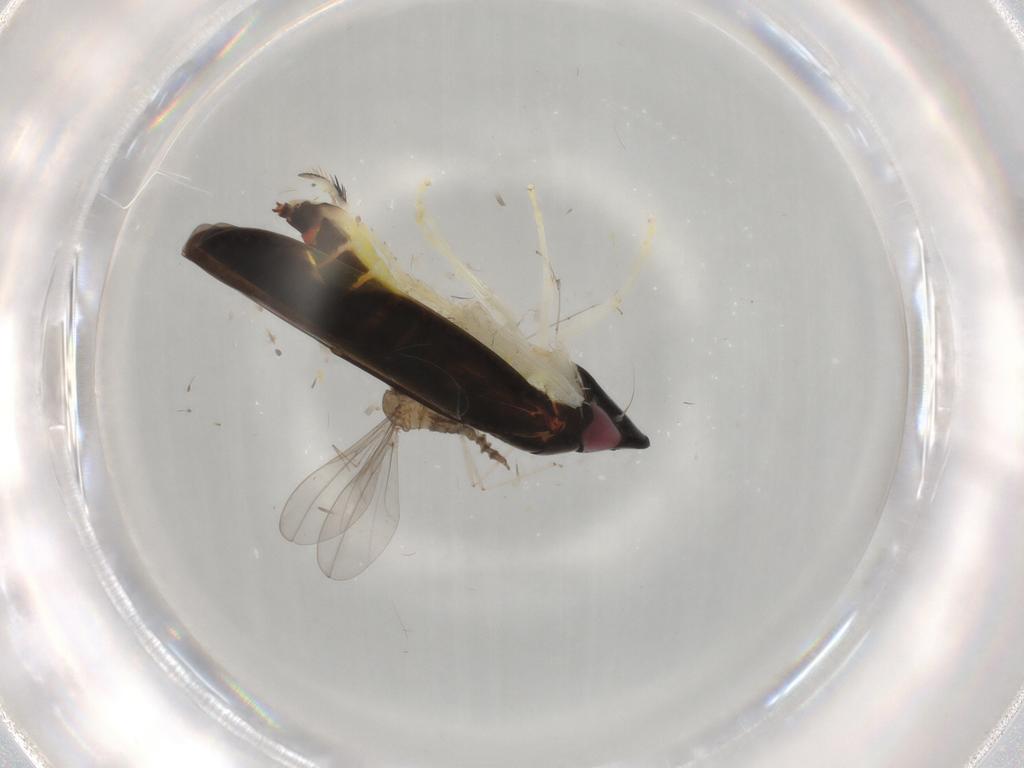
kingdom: Animalia
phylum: Arthropoda
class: Insecta
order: Hemiptera
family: Cicadellidae
